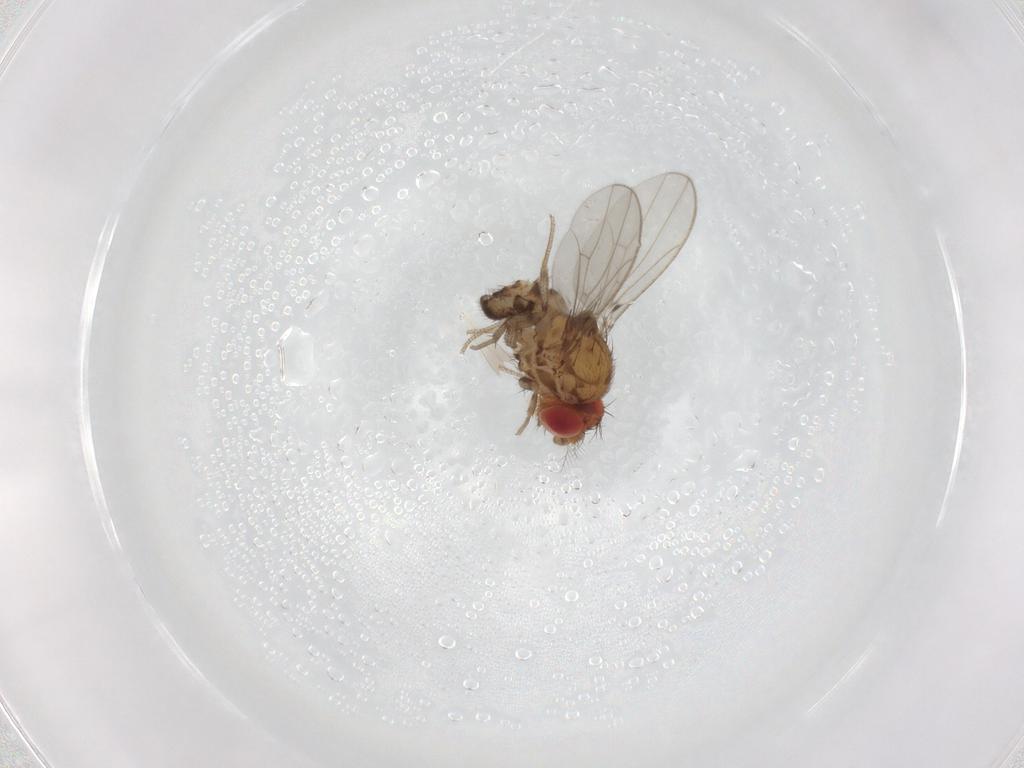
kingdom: Animalia
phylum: Arthropoda
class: Insecta
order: Diptera
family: Drosophilidae
